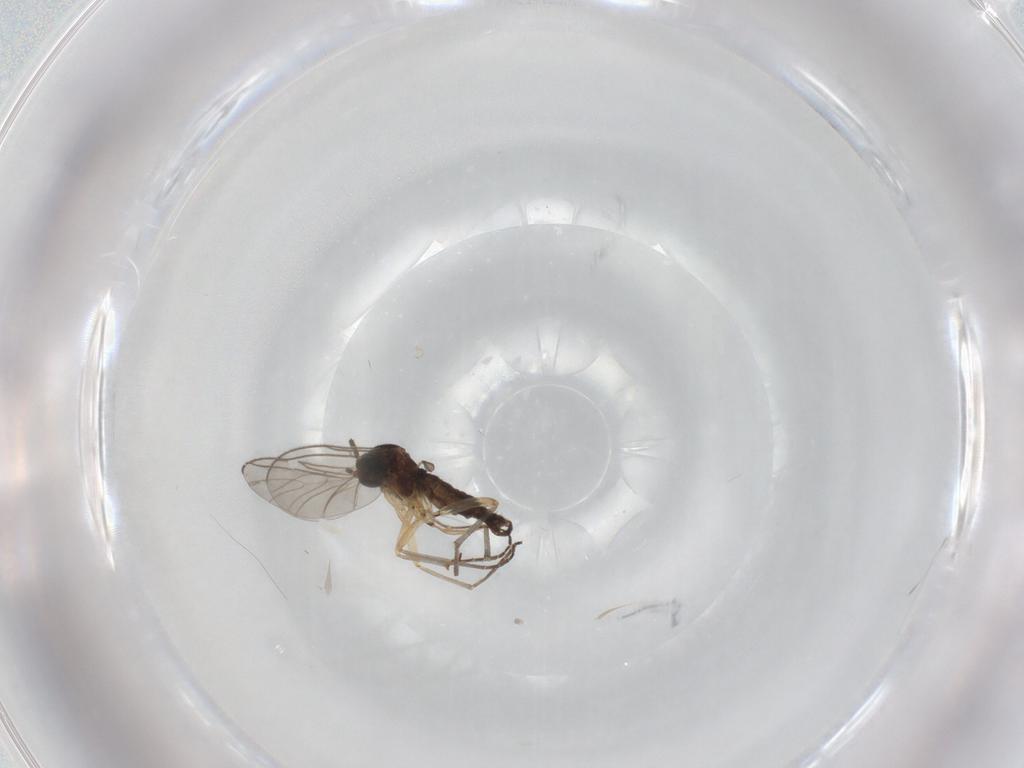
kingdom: Animalia
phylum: Arthropoda
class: Insecta
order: Diptera
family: Sciaridae
